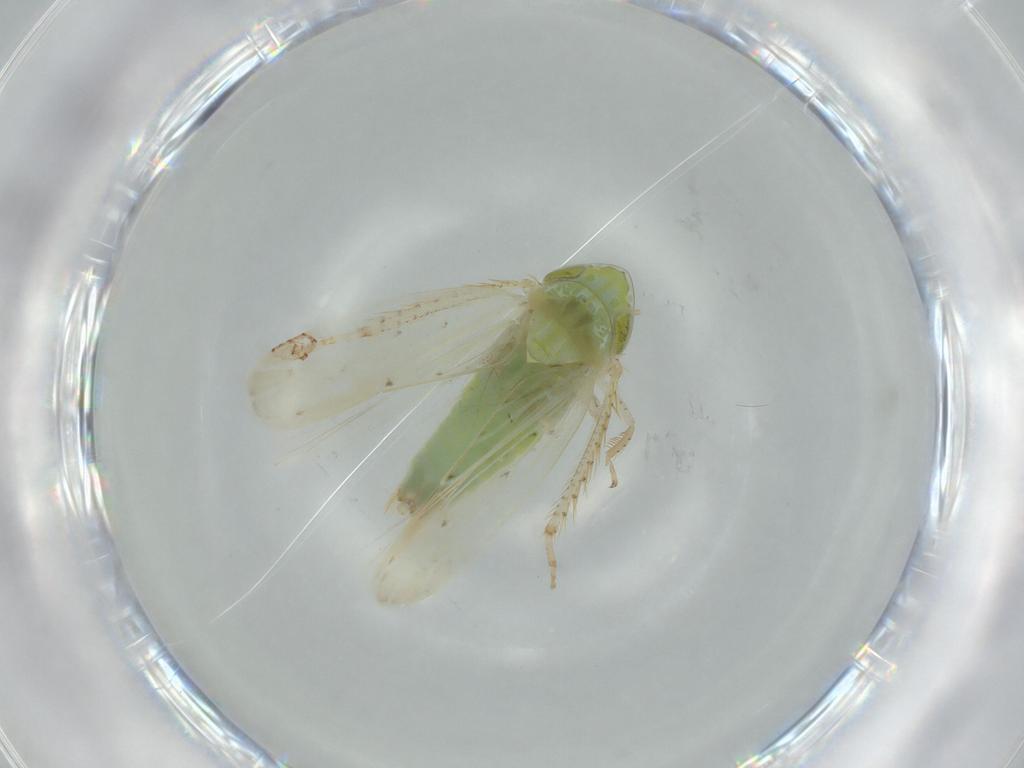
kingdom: Animalia
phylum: Arthropoda
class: Insecta
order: Hemiptera
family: Cicadellidae
